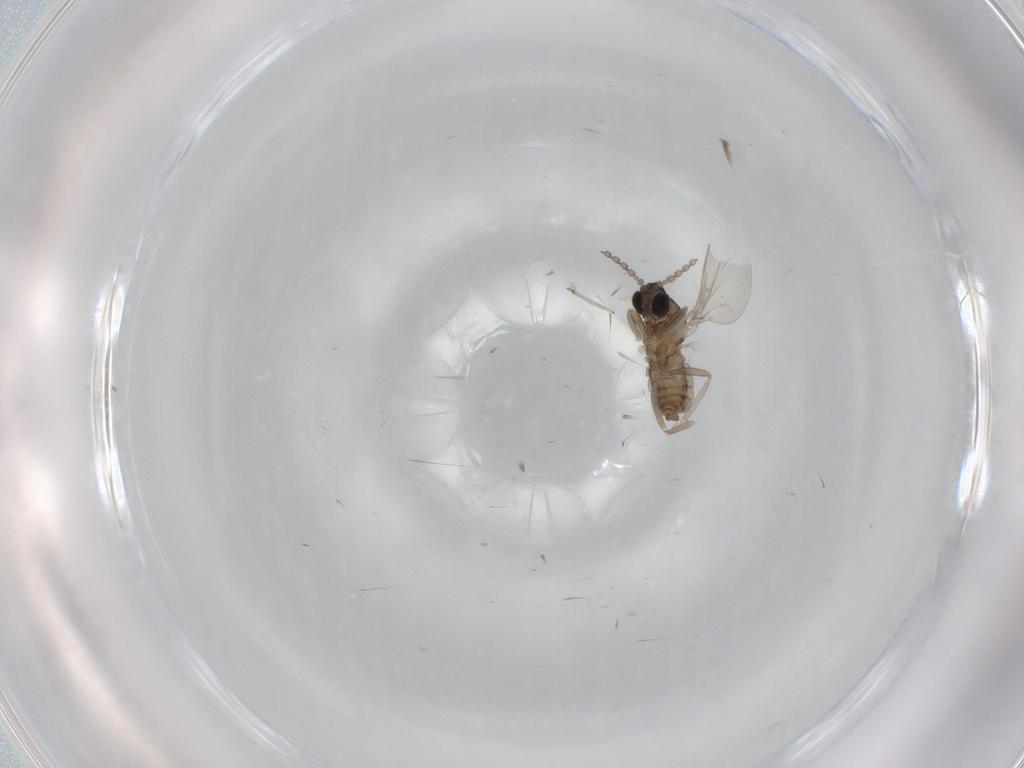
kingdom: Animalia
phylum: Arthropoda
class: Insecta
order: Diptera
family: Cecidomyiidae
